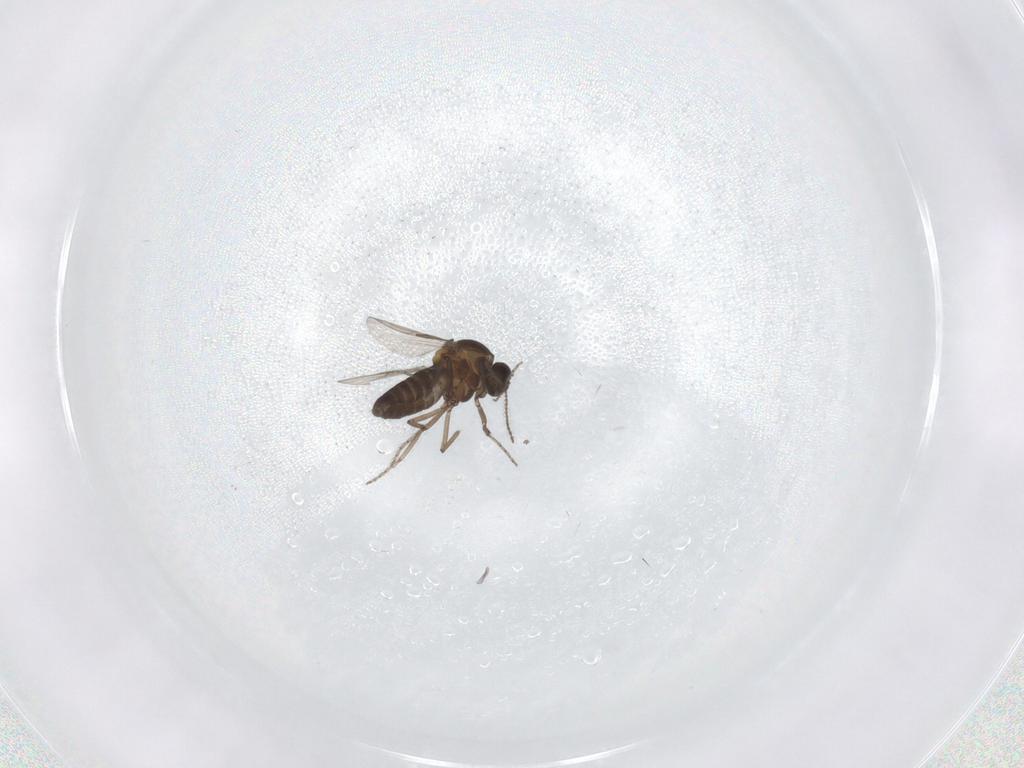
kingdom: Animalia
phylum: Arthropoda
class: Insecta
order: Diptera
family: Ceratopogonidae
